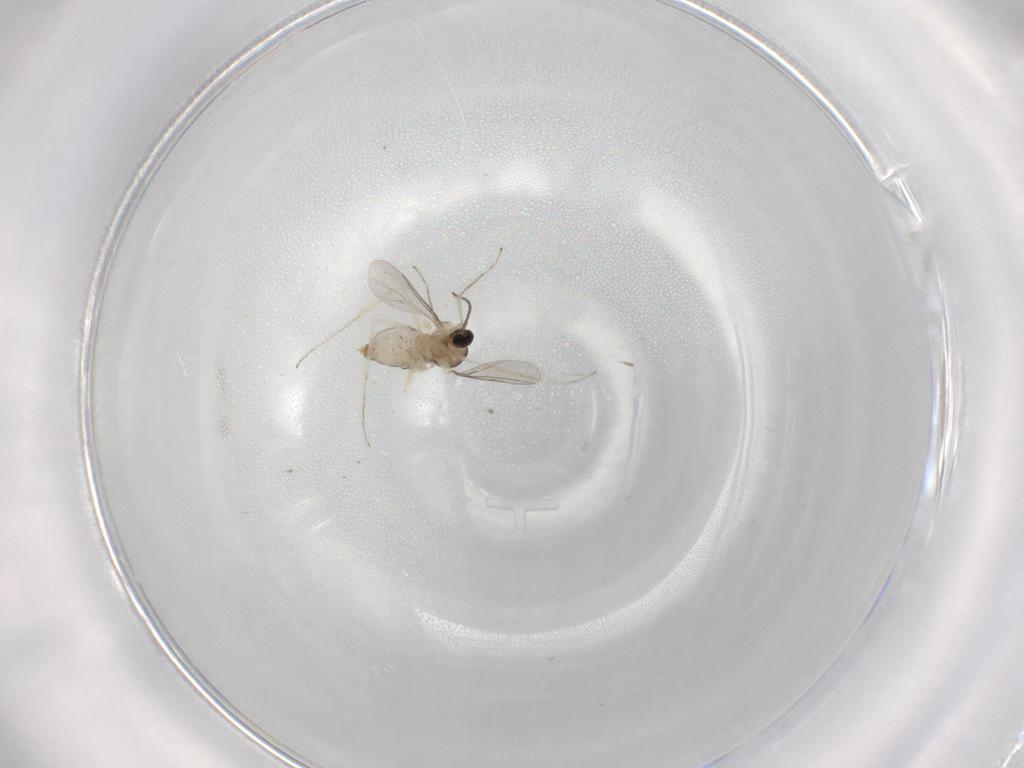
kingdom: Animalia
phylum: Arthropoda
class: Insecta
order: Diptera
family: Cecidomyiidae
